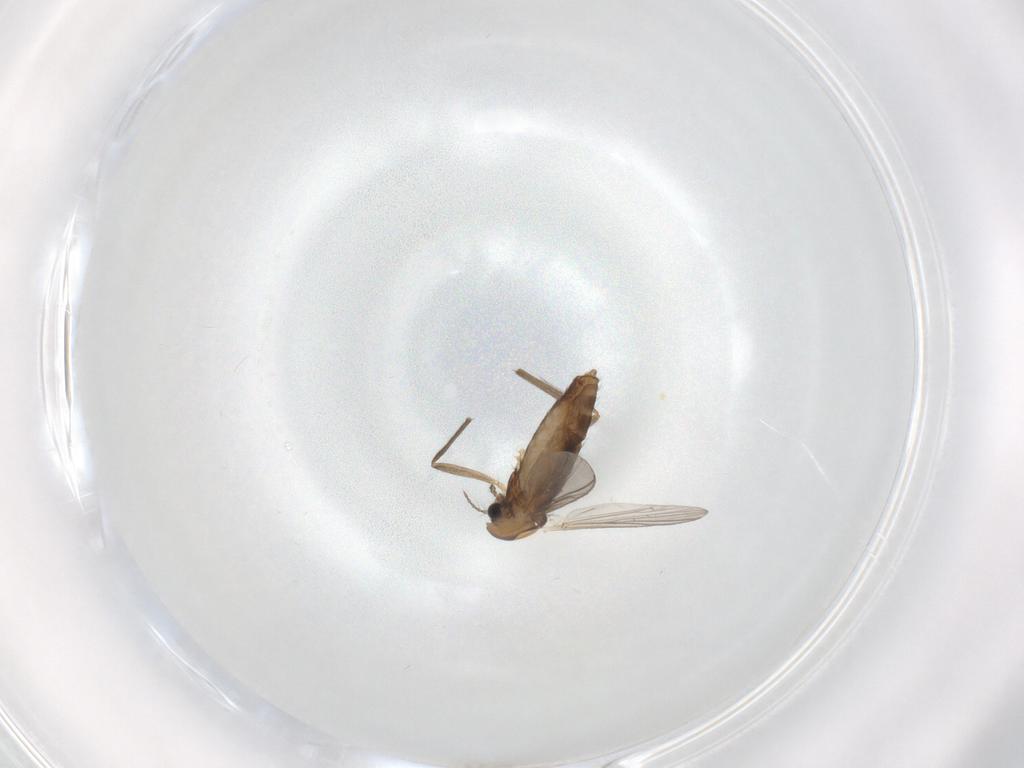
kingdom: Animalia
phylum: Arthropoda
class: Insecta
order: Diptera
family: Chironomidae
